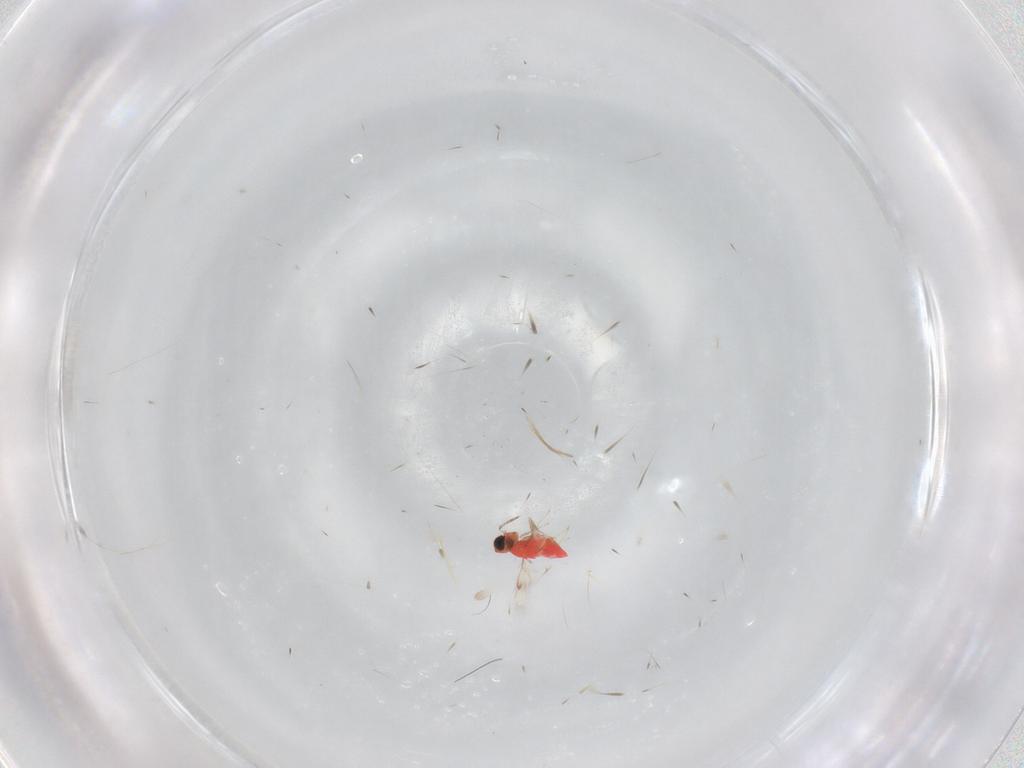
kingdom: Animalia
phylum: Arthropoda
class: Insecta
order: Hymenoptera
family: Trichogrammatidae
